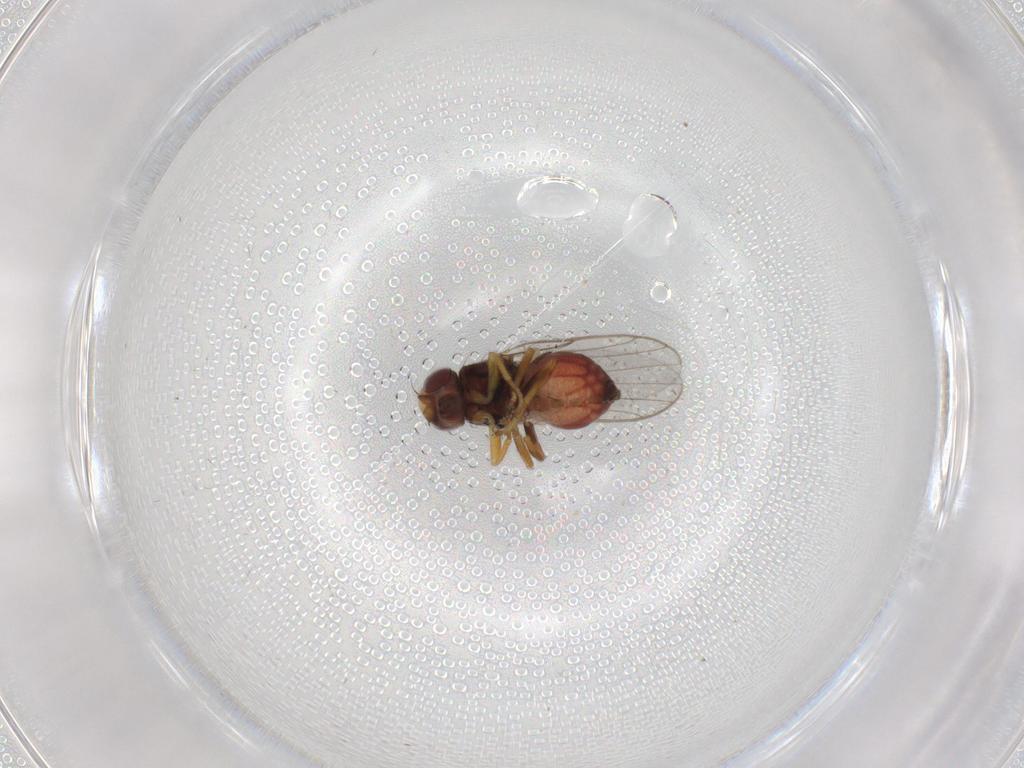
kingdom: Animalia
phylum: Arthropoda
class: Insecta
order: Diptera
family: Chloropidae
